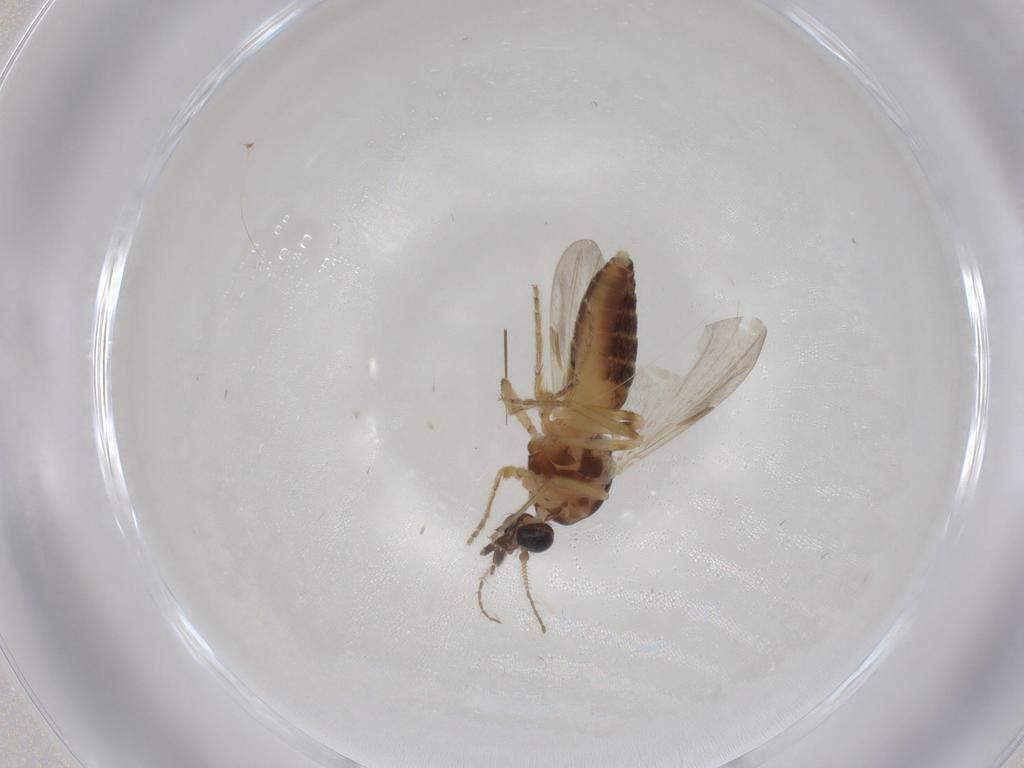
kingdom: Animalia
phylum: Arthropoda
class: Insecta
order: Diptera
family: Ceratopogonidae
